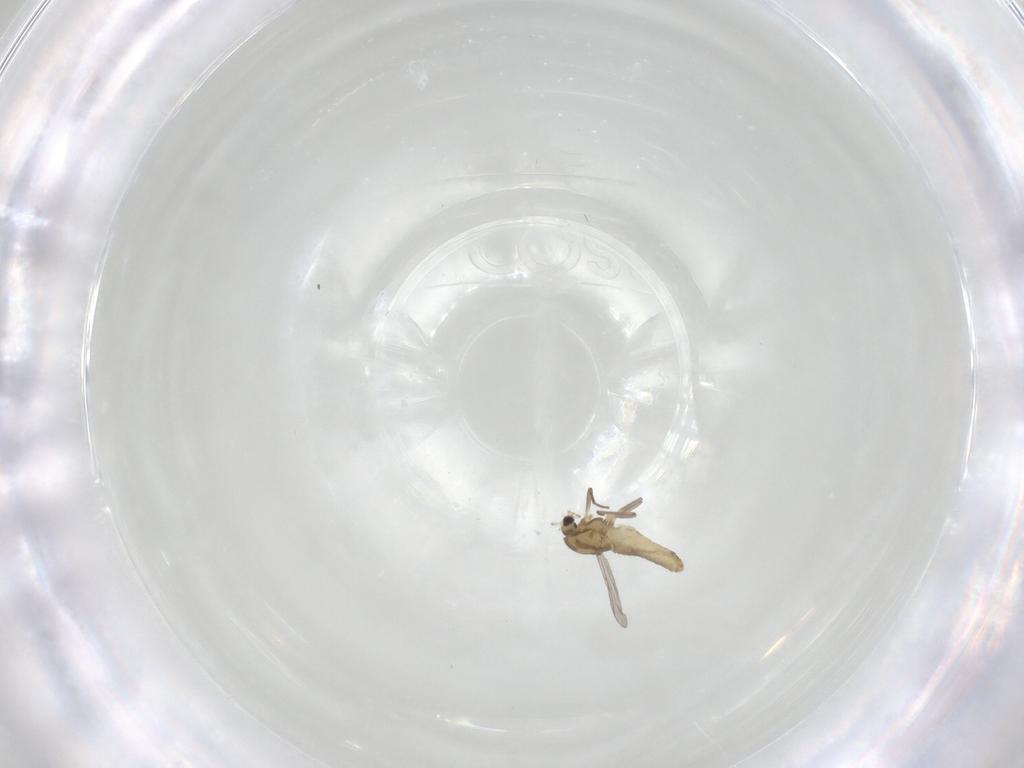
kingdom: Animalia
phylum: Arthropoda
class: Insecta
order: Diptera
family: Chironomidae
